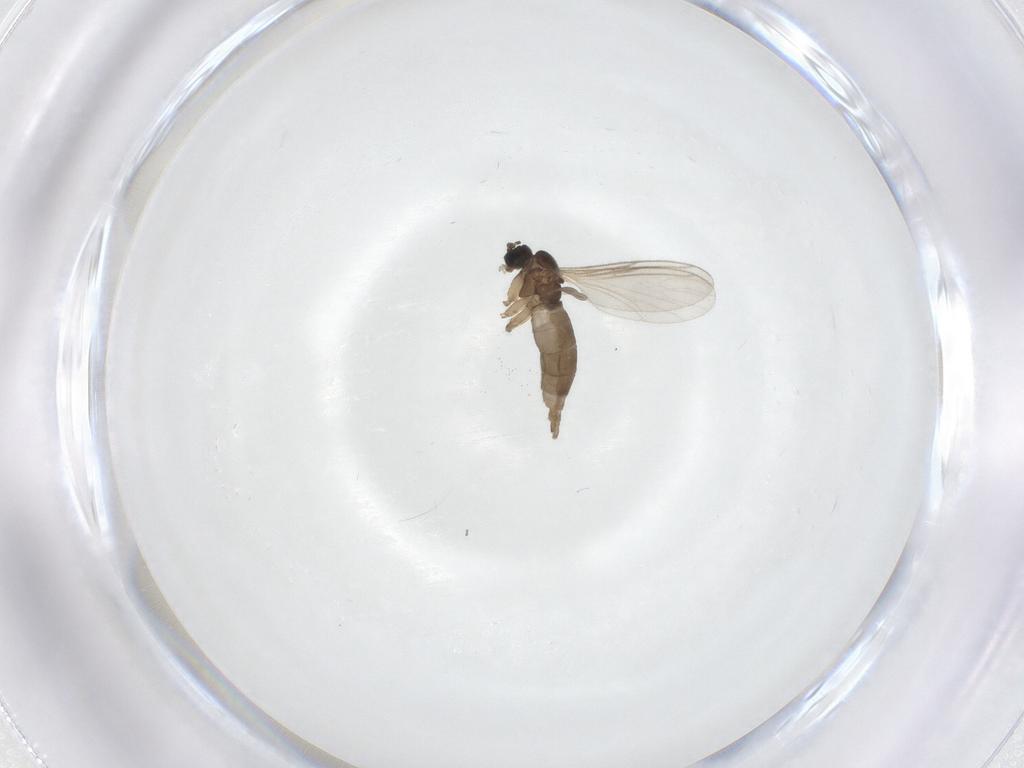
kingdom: Animalia
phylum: Arthropoda
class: Insecta
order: Diptera
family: Sciaridae
